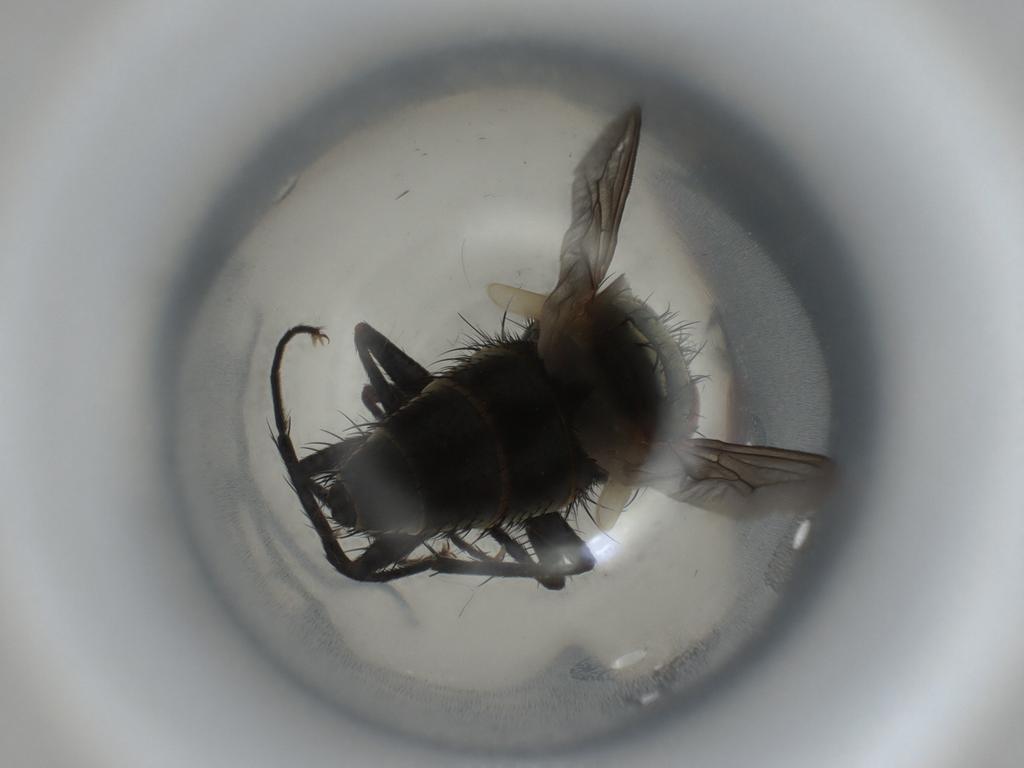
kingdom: Animalia
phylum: Arthropoda
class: Insecta
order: Diptera
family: Sarcophagidae
